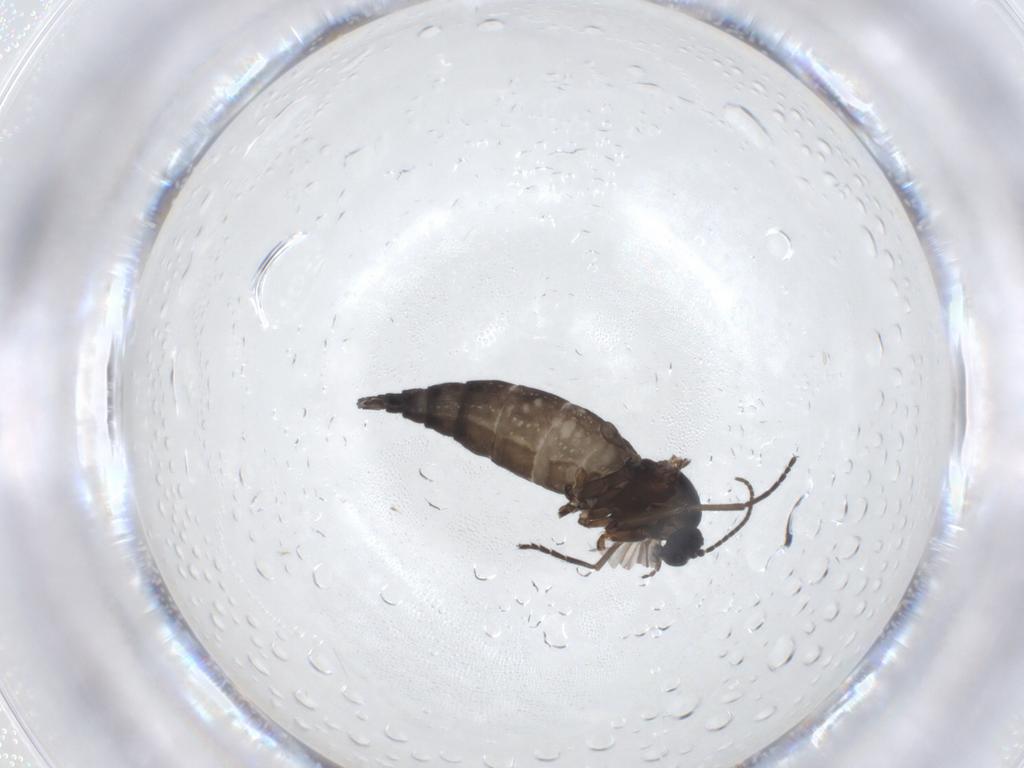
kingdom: Animalia
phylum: Arthropoda
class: Insecta
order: Diptera
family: Sciaridae
